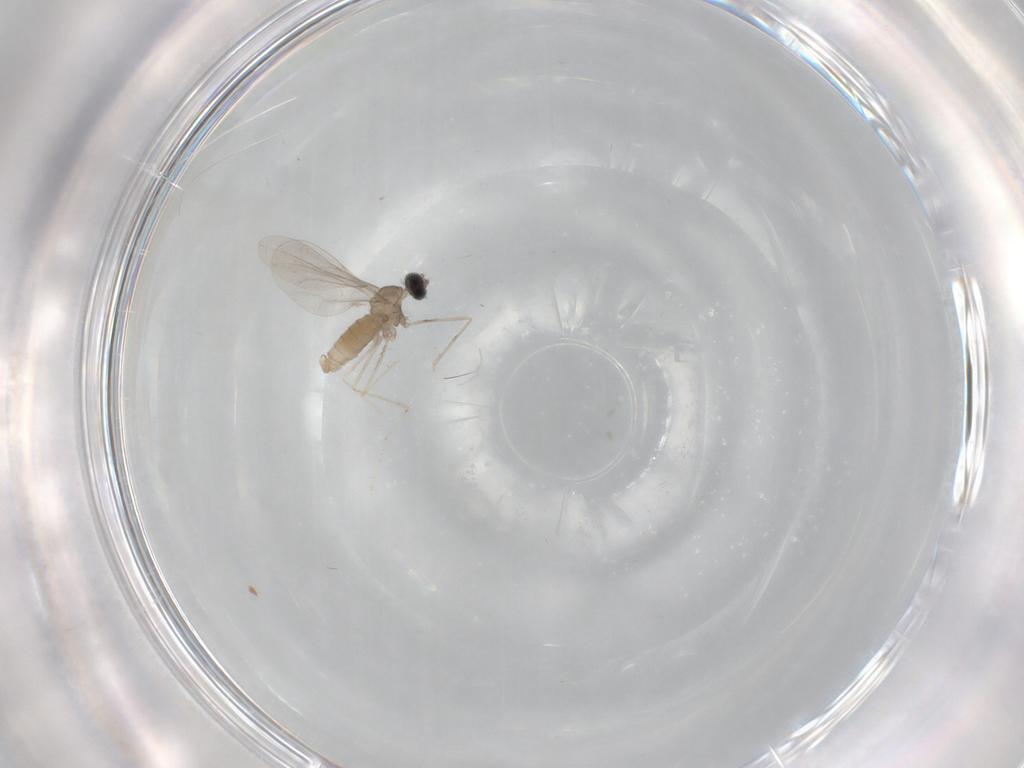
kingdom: Animalia
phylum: Arthropoda
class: Insecta
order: Diptera
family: Cecidomyiidae
